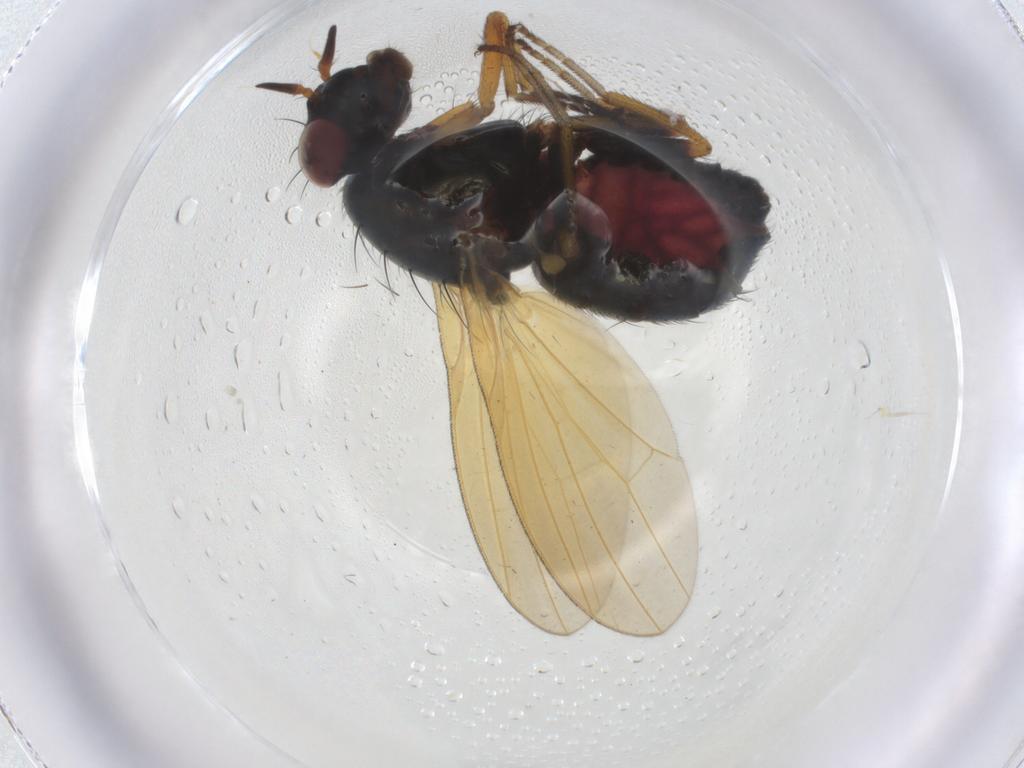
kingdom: Animalia
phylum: Arthropoda
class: Insecta
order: Diptera
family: Cecidomyiidae
